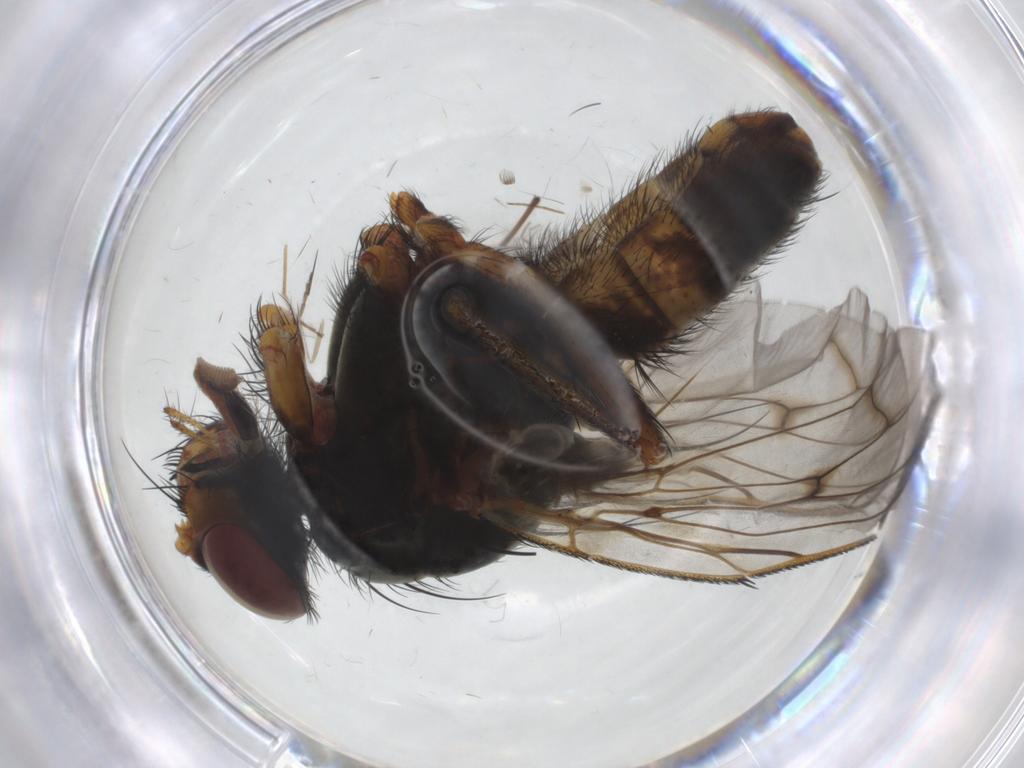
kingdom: Animalia
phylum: Arthropoda
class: Insecta
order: Diptera
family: Anthomyiidae
